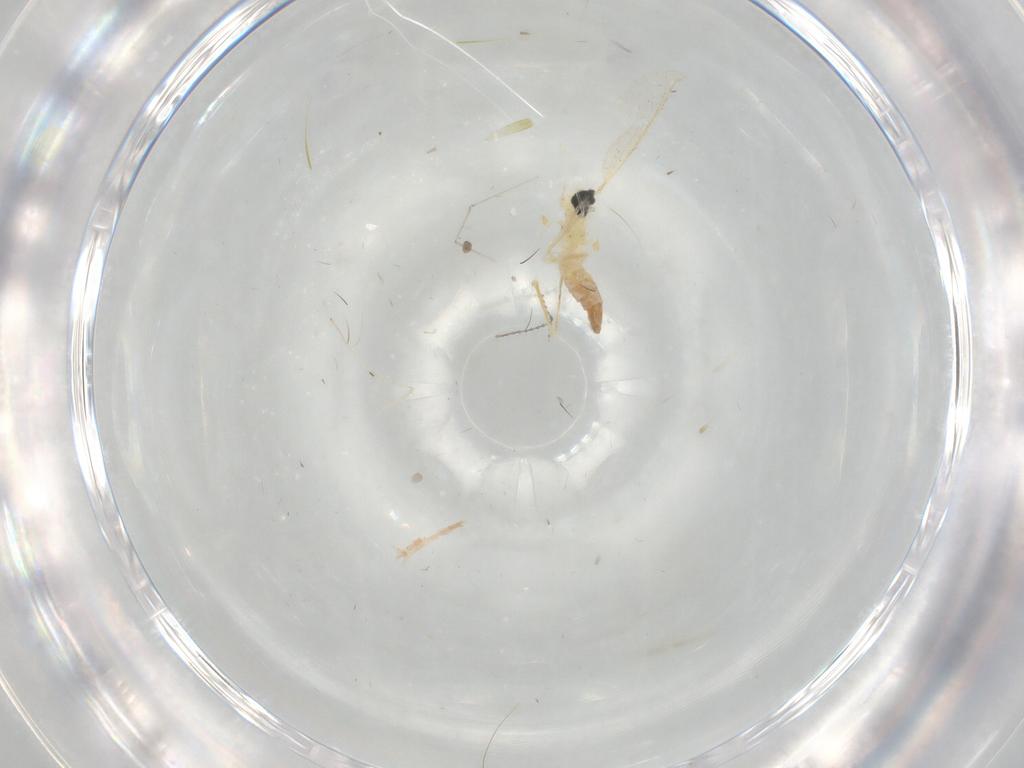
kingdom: Animalia
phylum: Arthropoda
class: Insecta
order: Diptera
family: Cecidomyiidae
